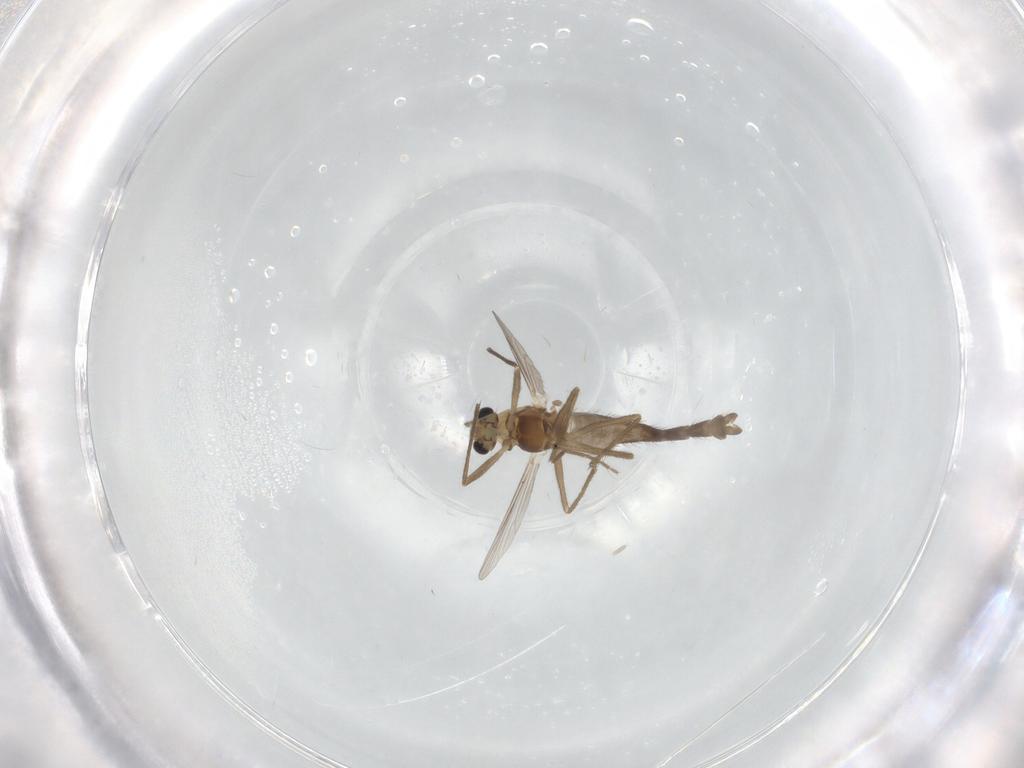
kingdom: Animalia
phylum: Arthropoda
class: Insecta
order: Diptera
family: Chironomidae
